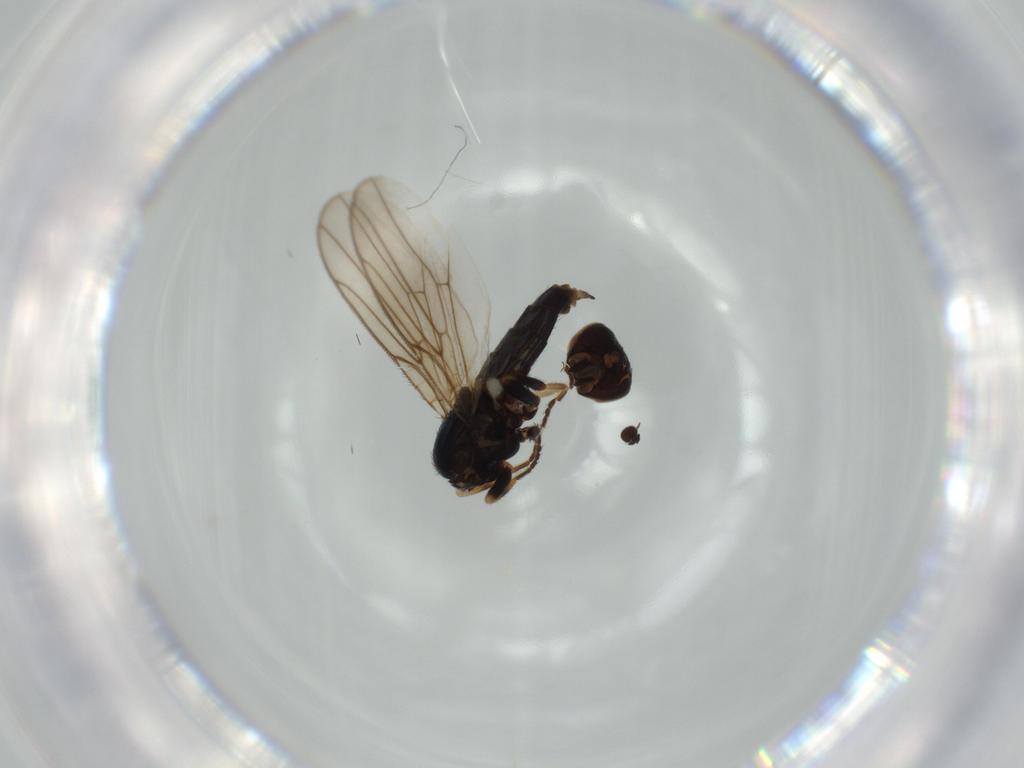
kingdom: Animalia
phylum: Arthropoda
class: Insecta
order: Diptera
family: Chloropidae
